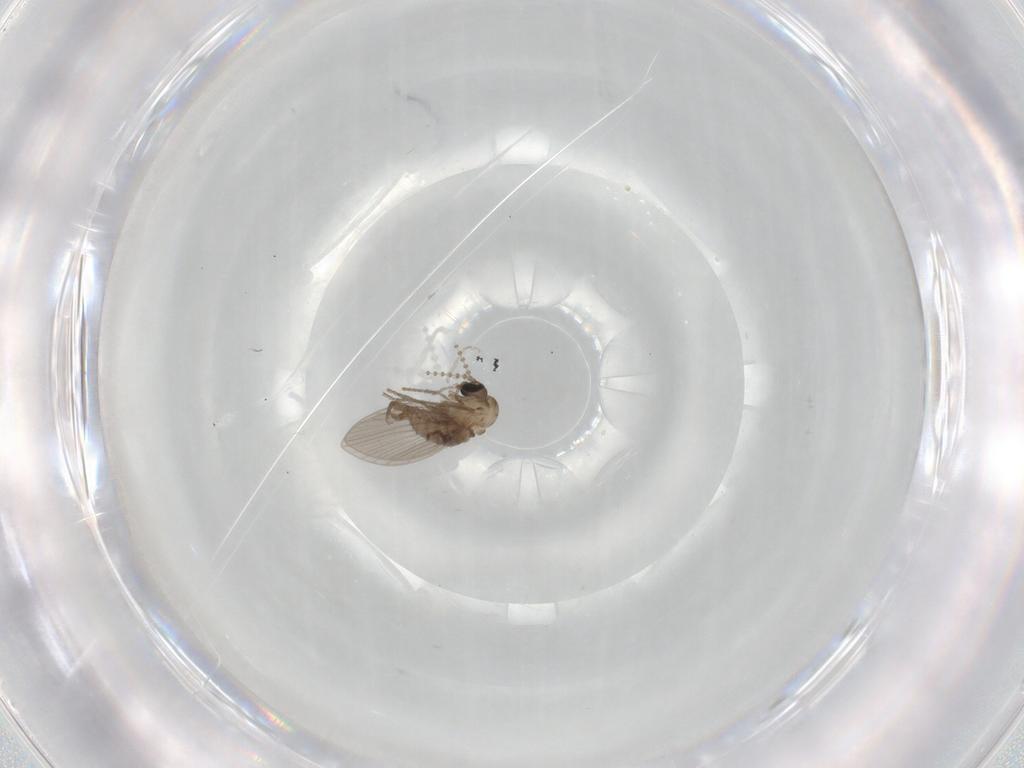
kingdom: Animalia
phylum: Arthropoda
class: Insecta
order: Diptera
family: Psychodidae
